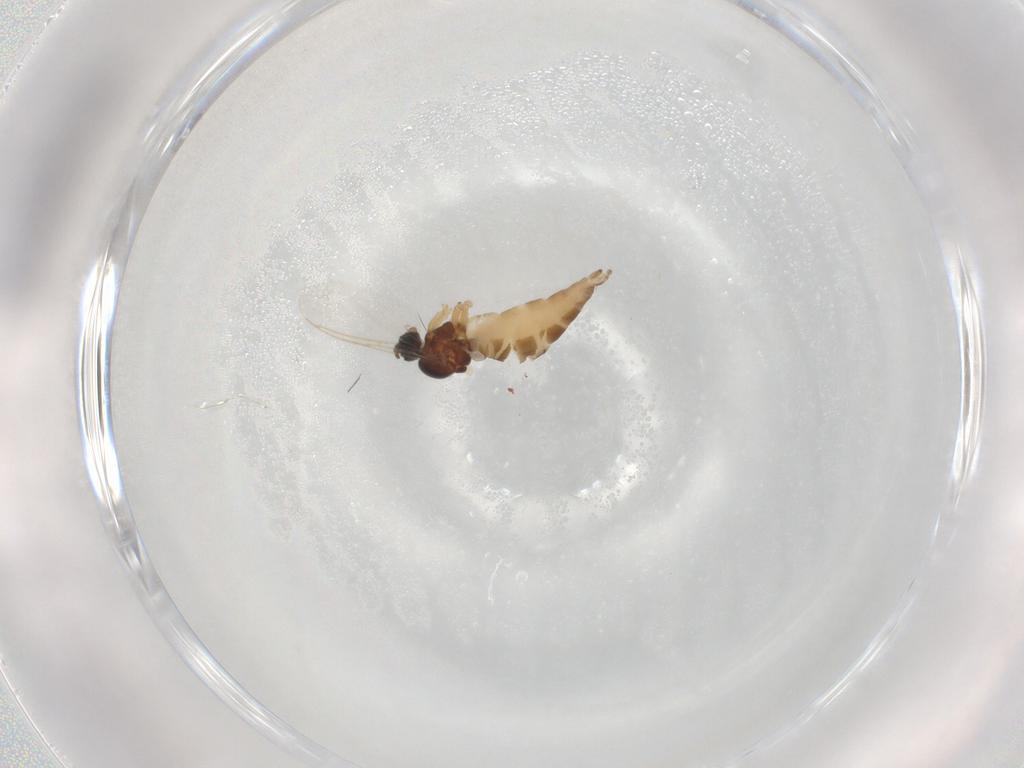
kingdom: Animalia
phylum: Arthropoda
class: Insecta
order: Diptera
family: Sciaridae
